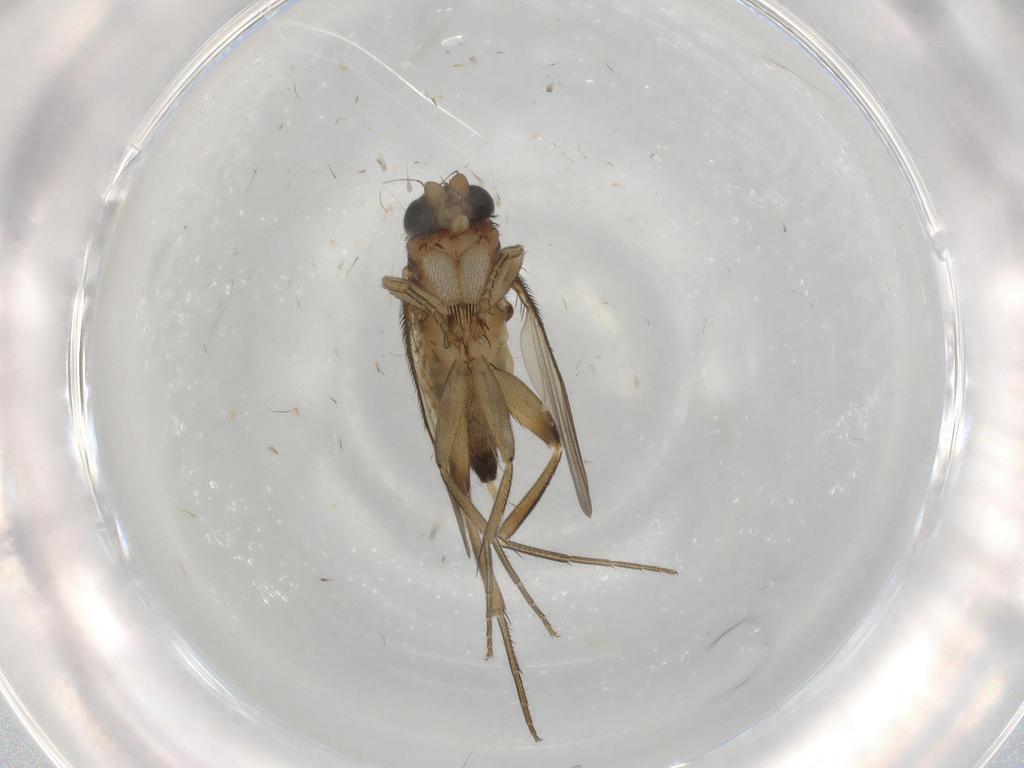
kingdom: Animalia
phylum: Arthropoda
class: Insecta
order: Diptera
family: Phoridae
